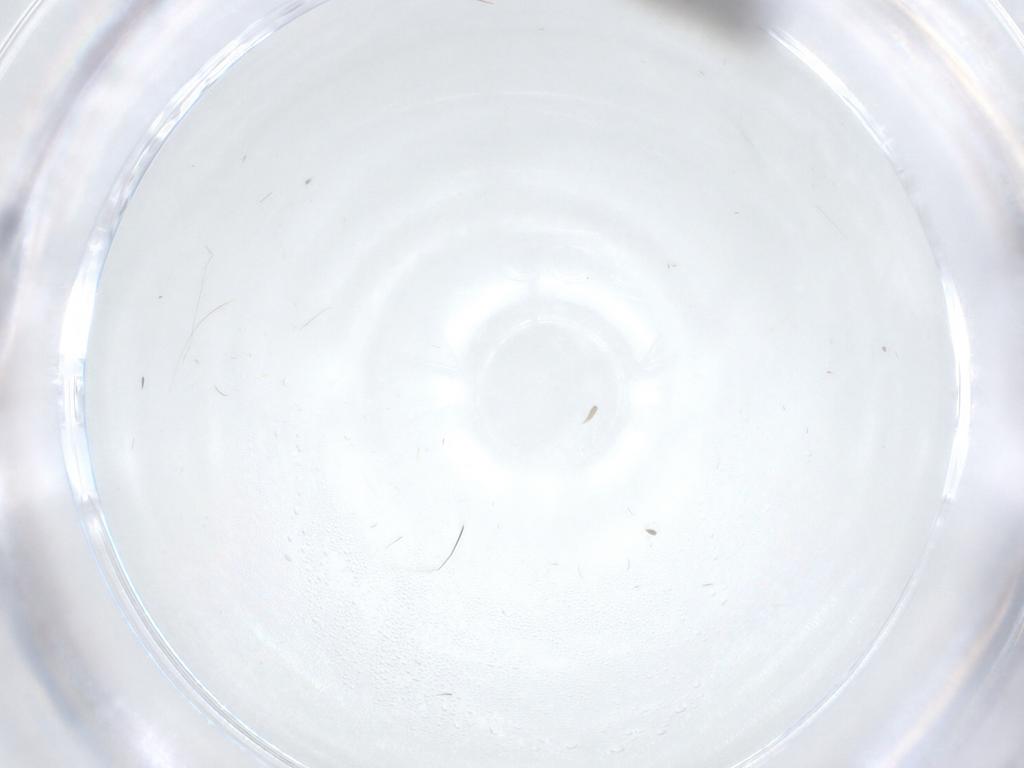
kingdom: Animalia
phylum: Arthropoda
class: Insecta
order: Diptera
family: Chironomidae
